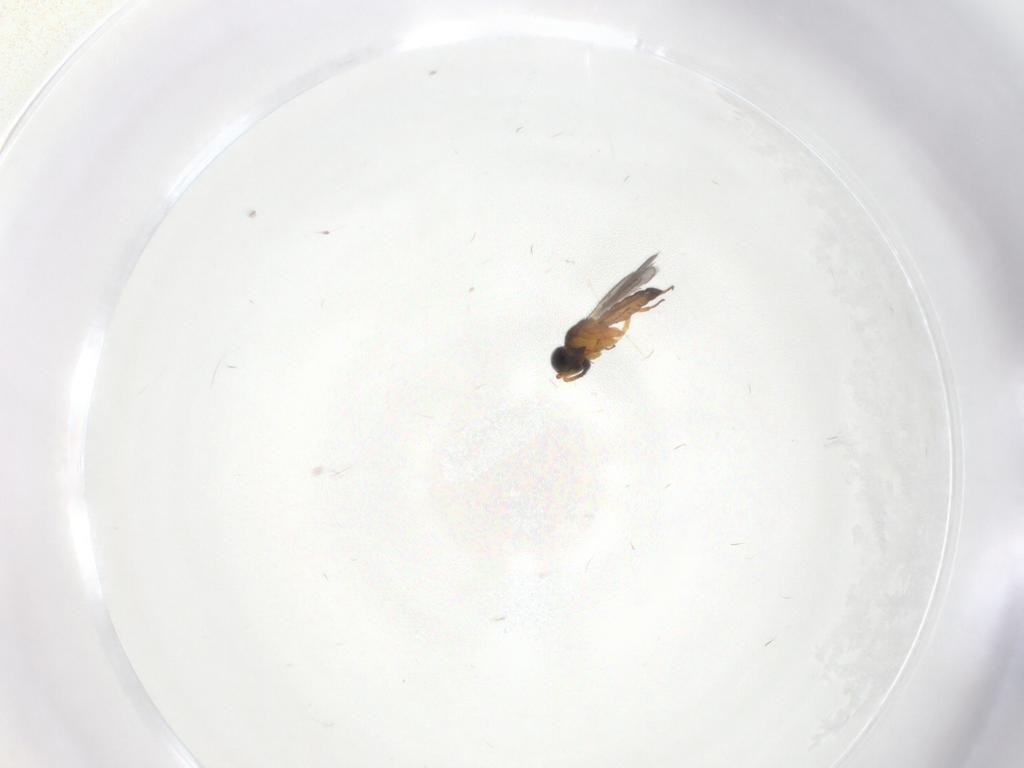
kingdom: Animalia
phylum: Arthropoda
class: Insecta
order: Hymenoptera
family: Scelionidae
